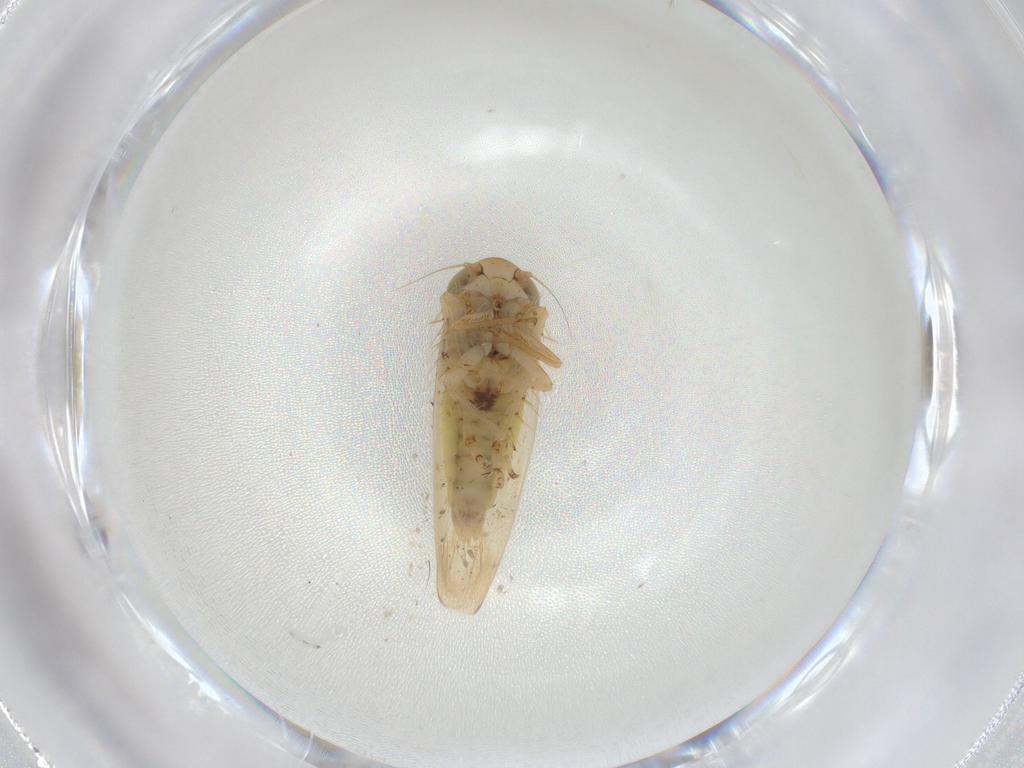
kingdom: Animalia
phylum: Arthropoda
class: Insecta
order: Hemiptera
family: Cicadellidae
